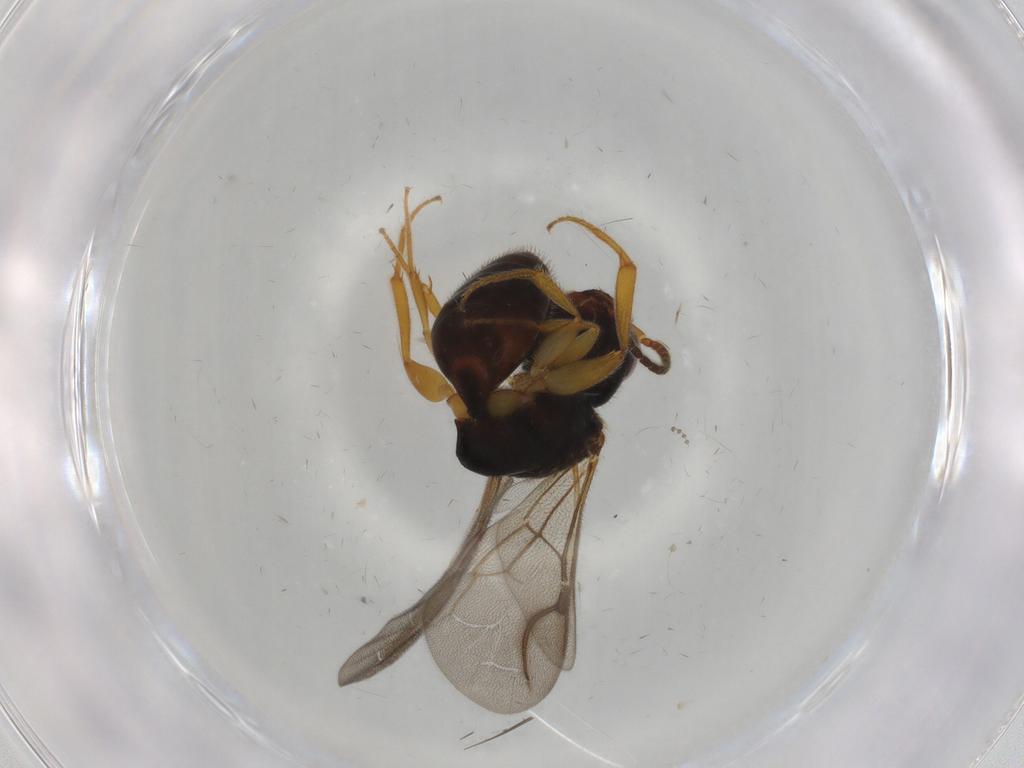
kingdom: Animalia
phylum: Arthropoda
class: Insecta
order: Hymenoptera
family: Bethylidae
